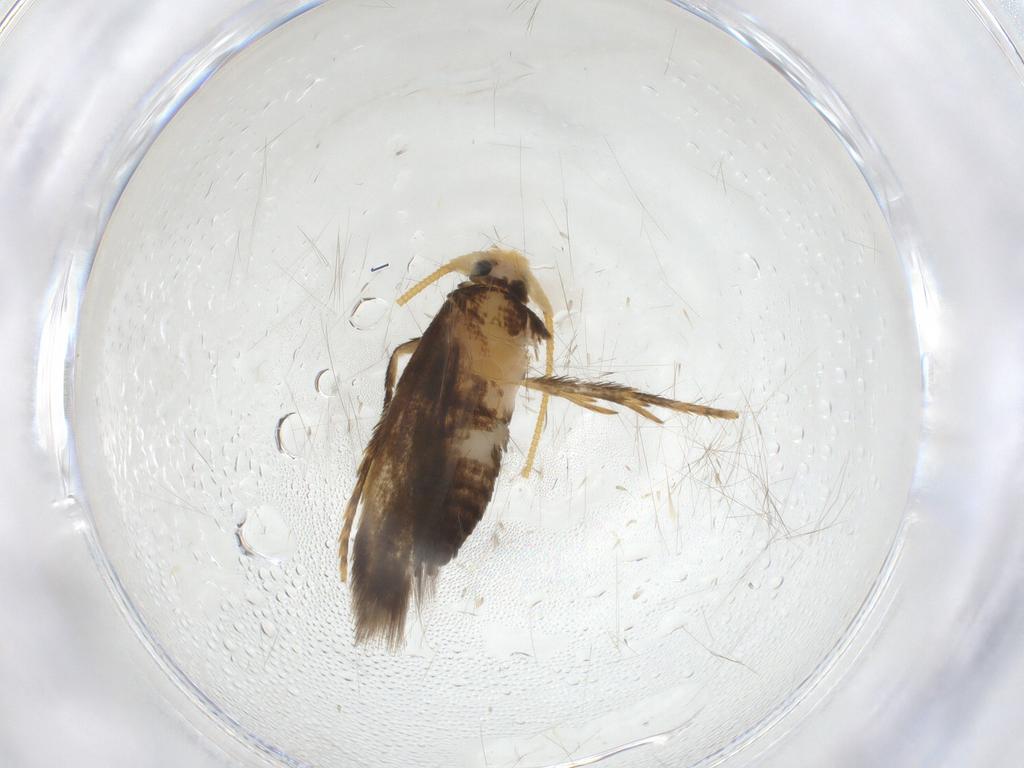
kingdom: Animalia
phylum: Arthropoda
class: Insecta
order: Lepidoptera
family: Nepticulidae
